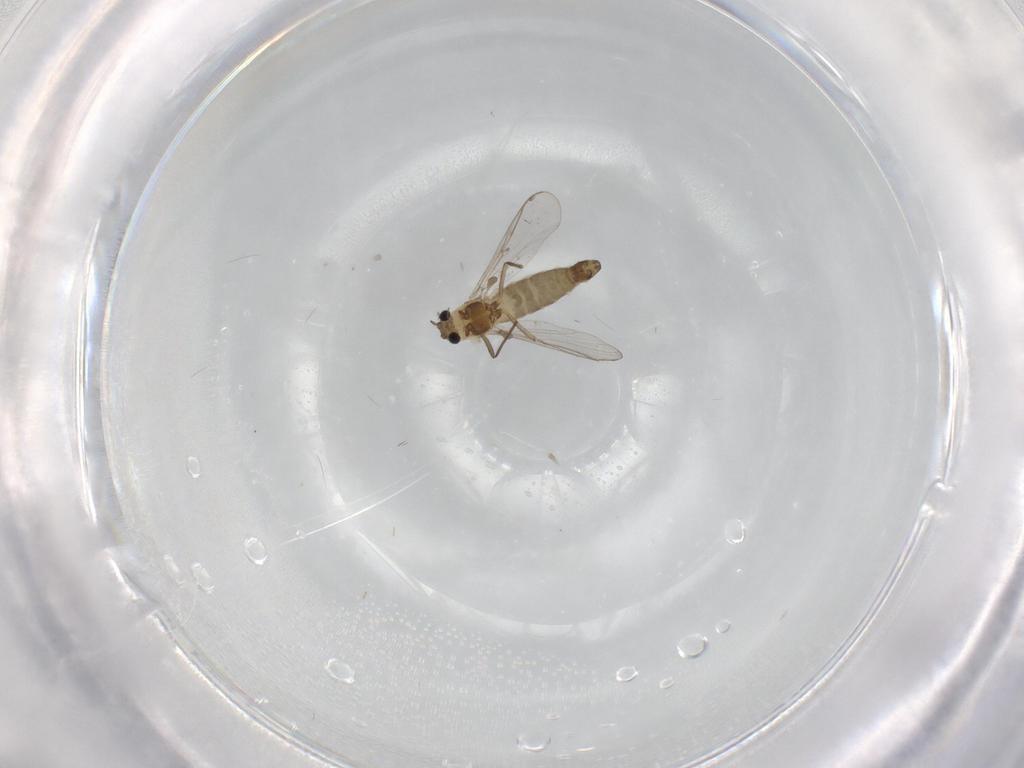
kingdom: Animalia
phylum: Arthropoda
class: Insecta
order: Diptera
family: Chironomidae
